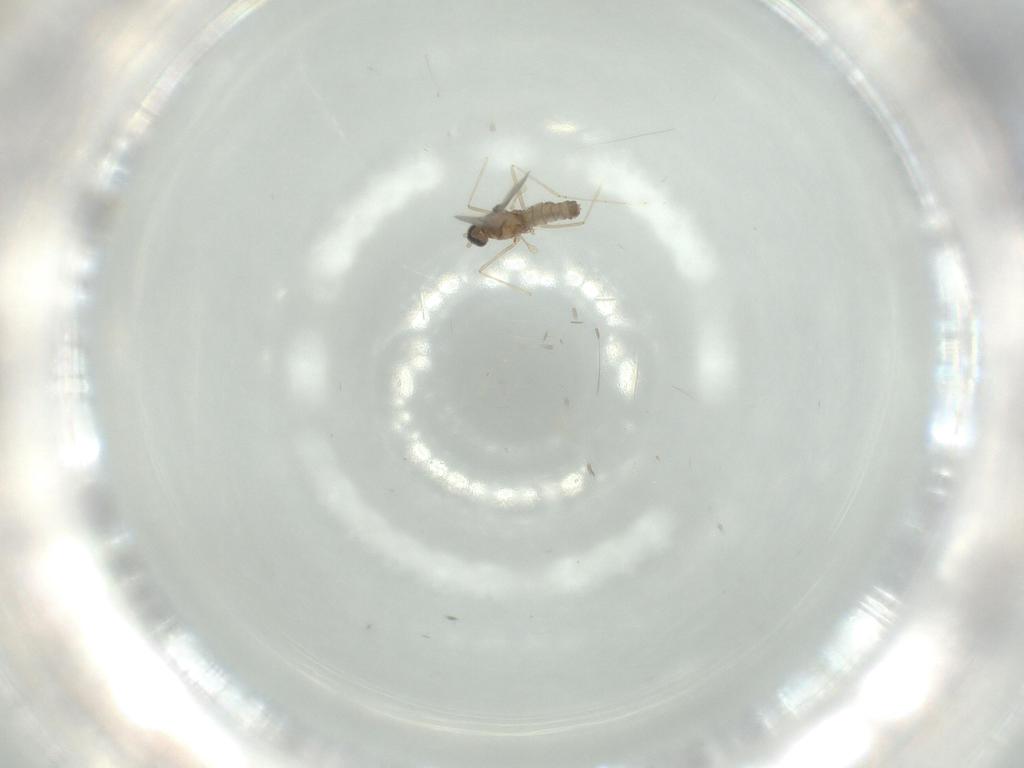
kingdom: Animalia
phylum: Arthropoda
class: Insecta
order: Diptera
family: Cecidomyiidae
